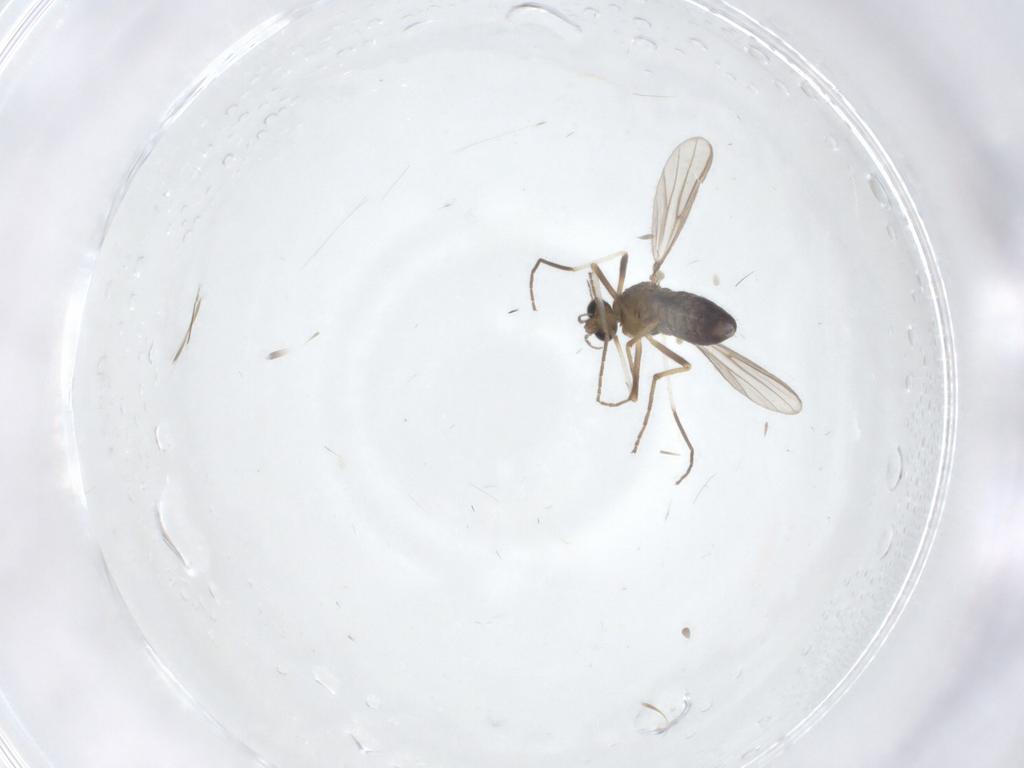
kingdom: Animalia
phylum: Arthropoda
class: Insecta
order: Diptera
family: Chironomidae
